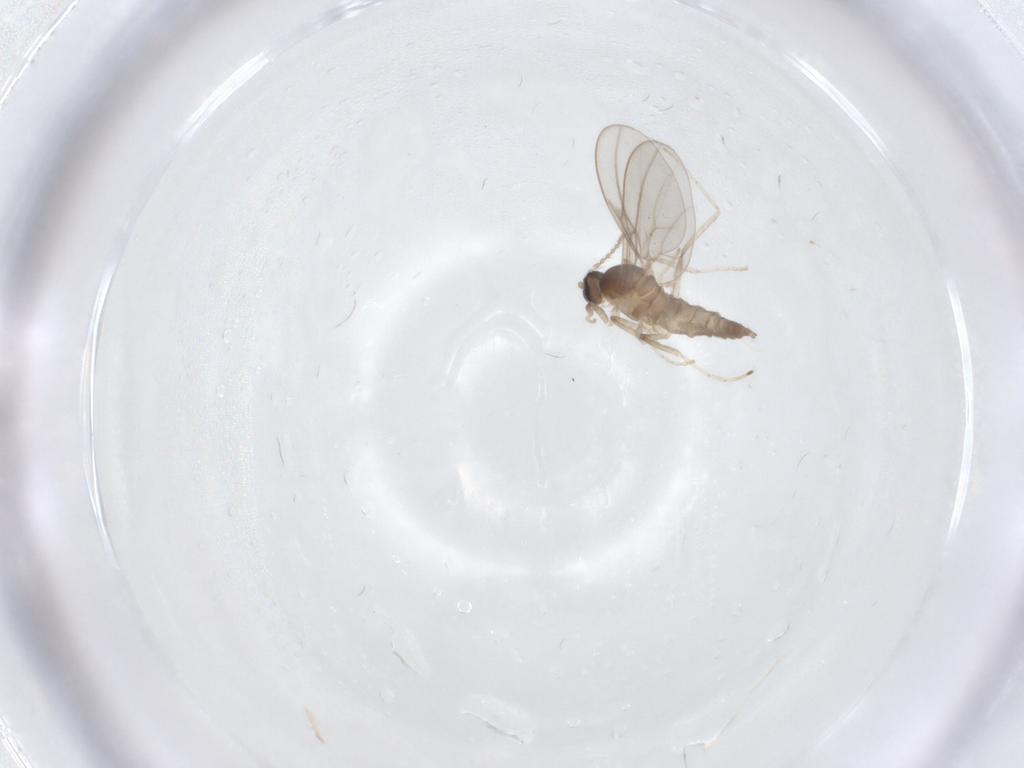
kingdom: Animalia
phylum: Arthropoda
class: Insecta
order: Diptera
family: Cecidomyiidae
